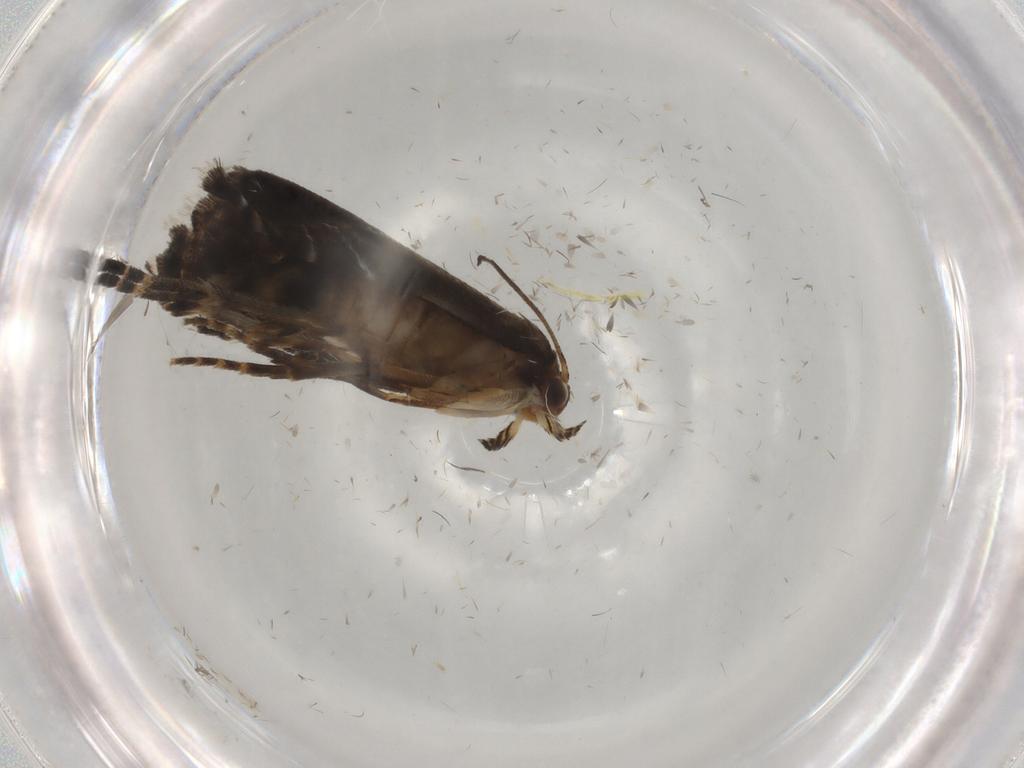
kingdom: Animalia
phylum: Arthropoda
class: Insecta
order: Lepidoptera
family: Glyphipterigidae
